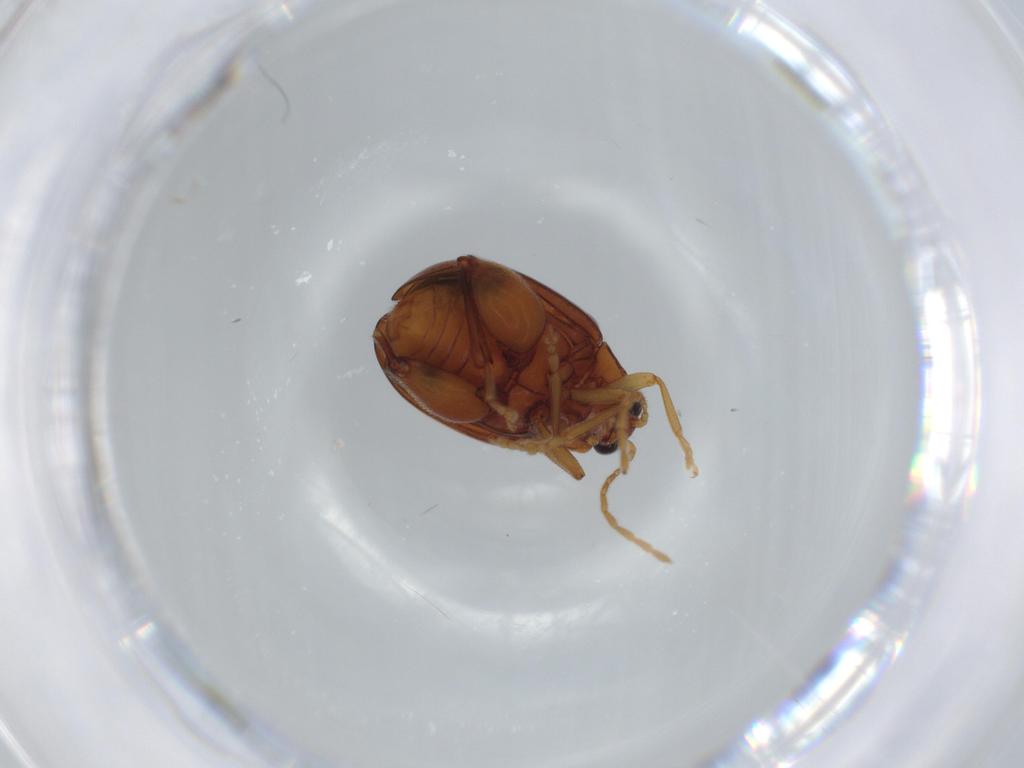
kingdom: Animalia
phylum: Arthropoda
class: Insecta
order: Coleoptera
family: Chrysomelidae
